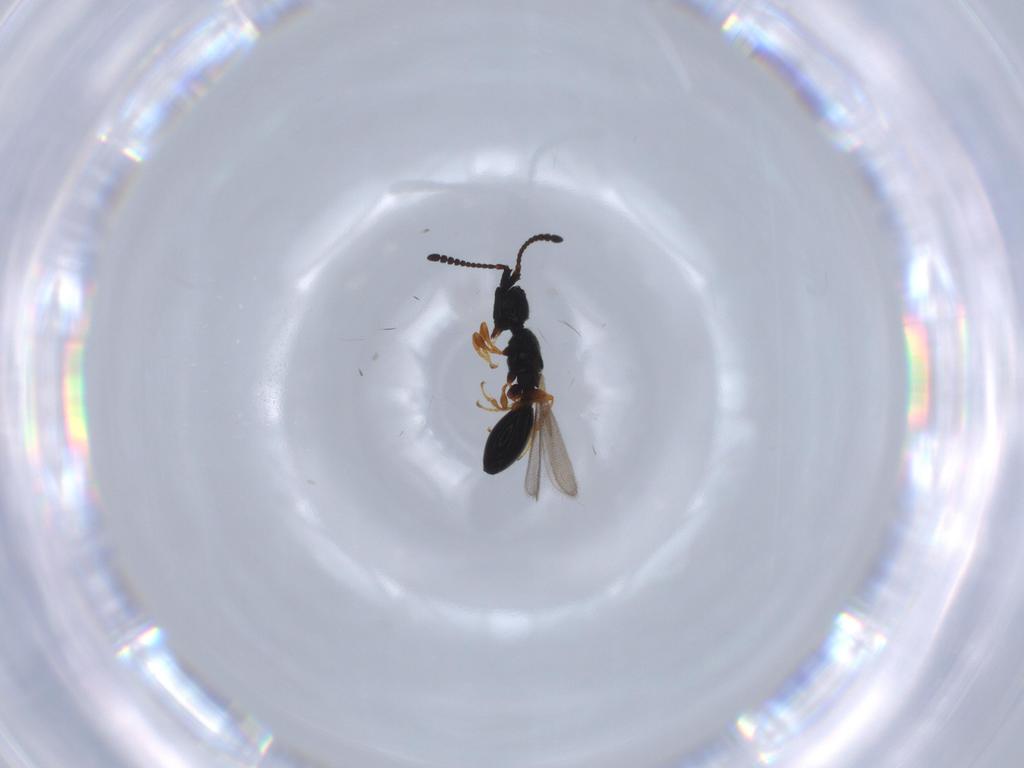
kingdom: Animalia
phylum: Arthropoda
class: Insecta
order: Hymenoptera
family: Diapriidae
